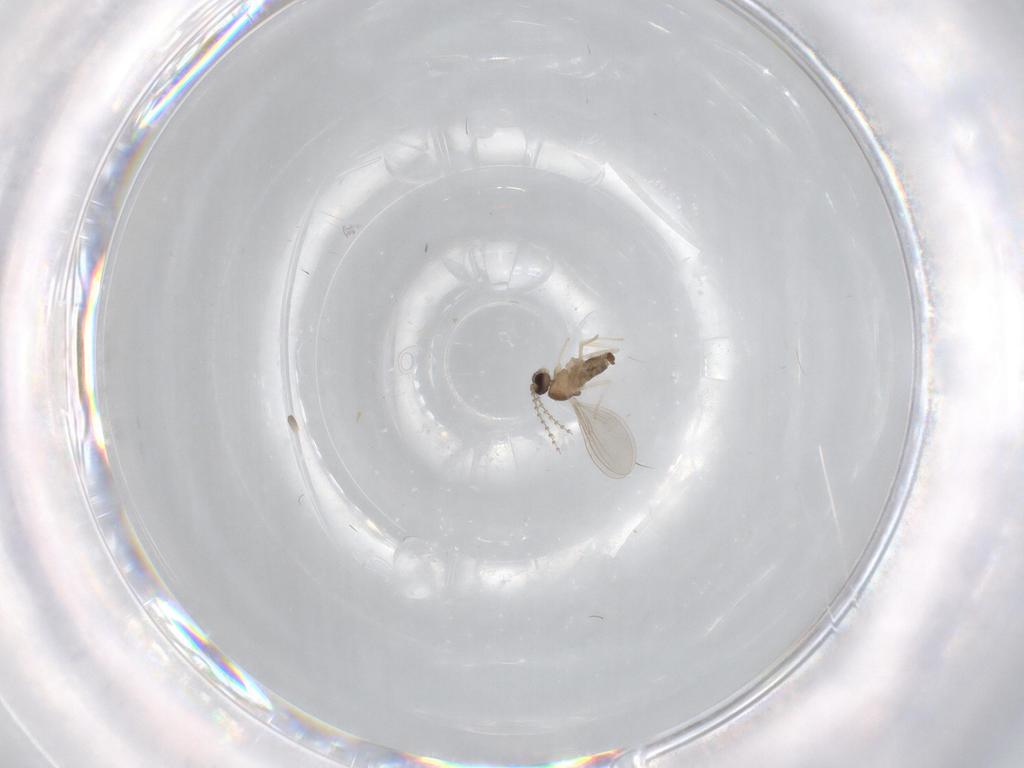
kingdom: Animalia
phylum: Arthropoda
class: Insecta
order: Diptera
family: Cecidomyiidae
